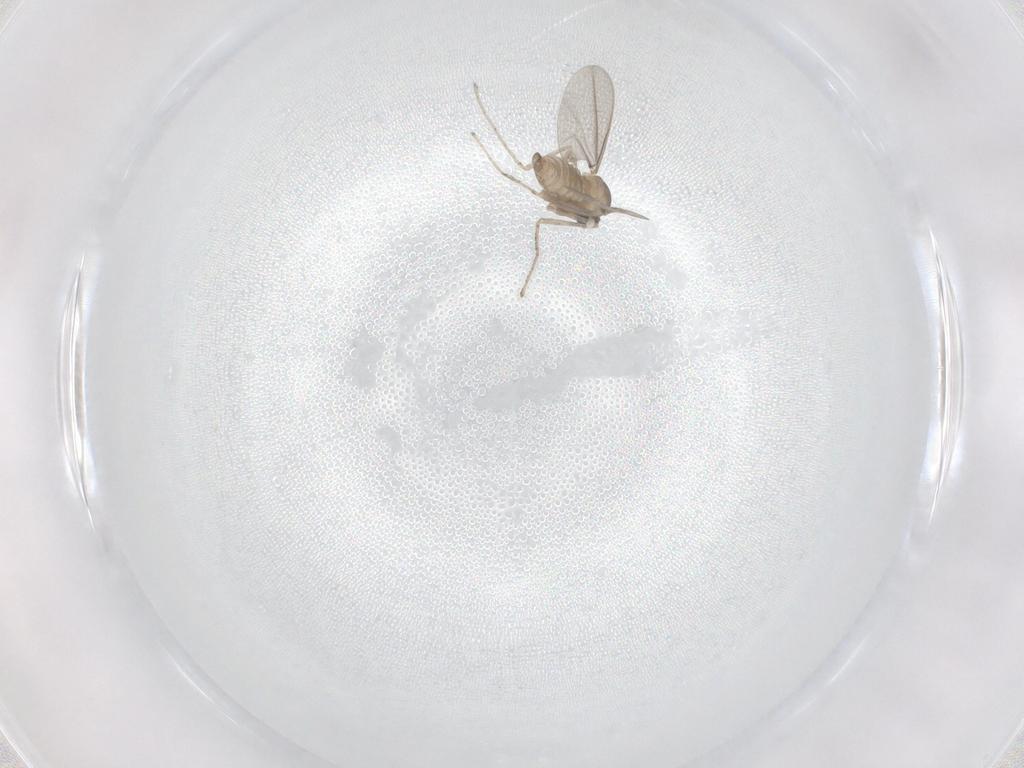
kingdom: Animalia
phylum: Arthropoda
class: Insecta
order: Diptera
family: Cecidomyiidae
